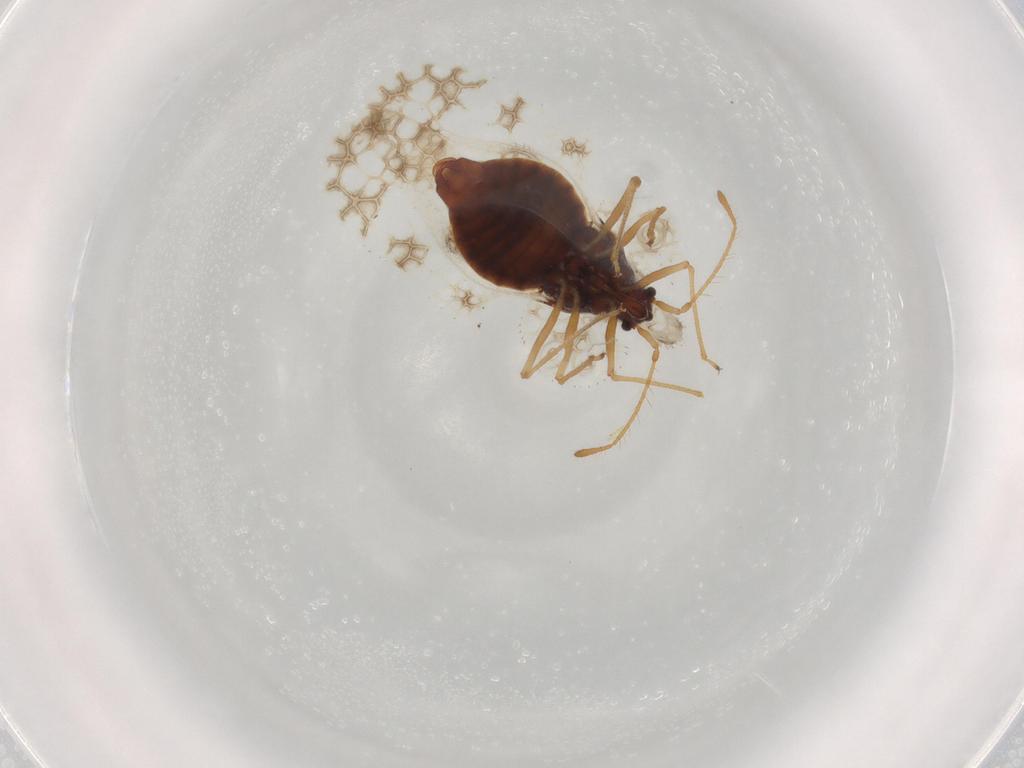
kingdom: Animalia
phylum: Arthropoda
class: Insecta
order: Hemiptera
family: Tingidae
